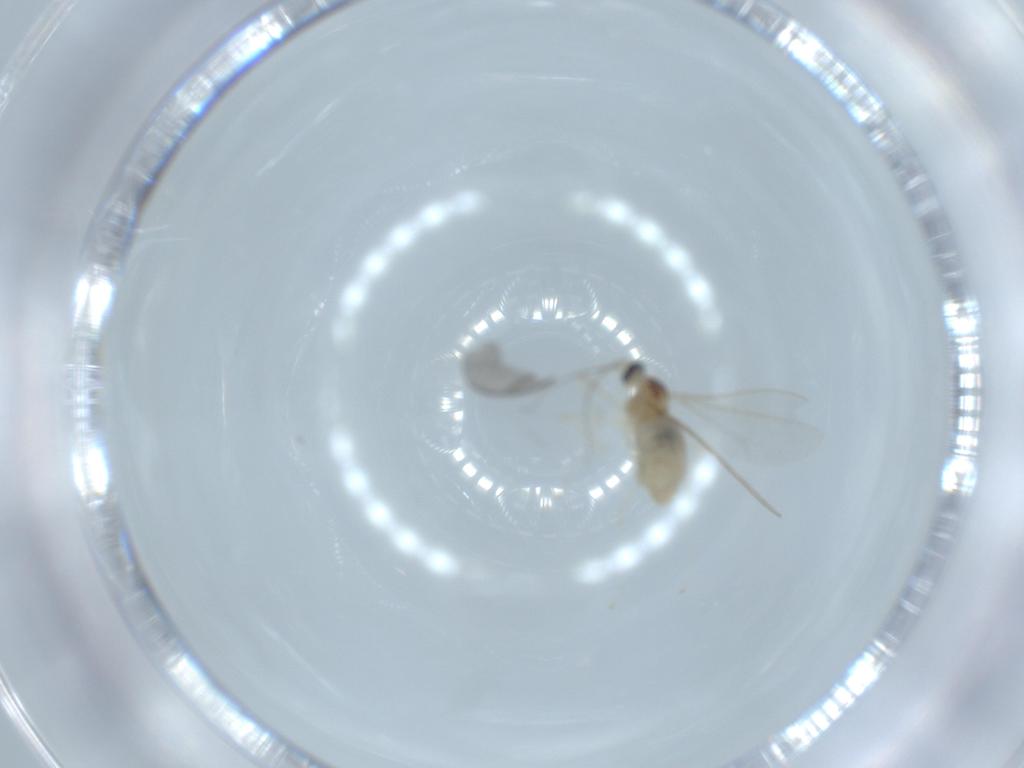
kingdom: Animalia
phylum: Arthropoda
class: Insecta
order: Diptera
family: Cecidomyiidae
